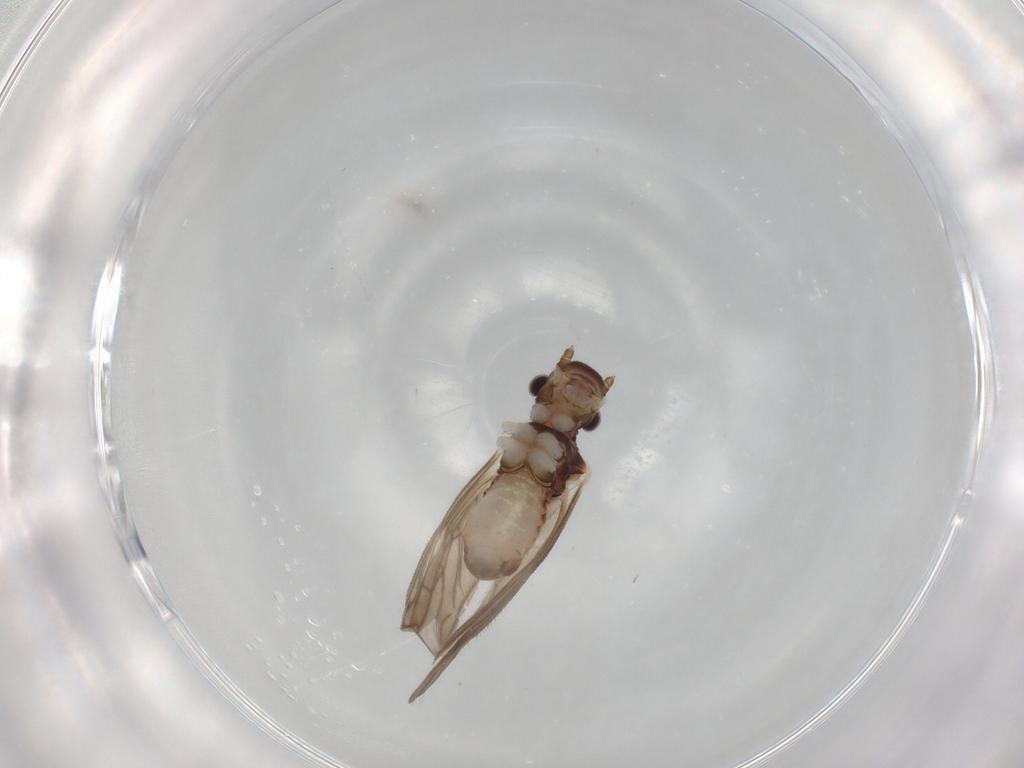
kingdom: Animalia
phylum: Arthropoda
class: Insecta
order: Psocodea
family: Caeciliusidae
